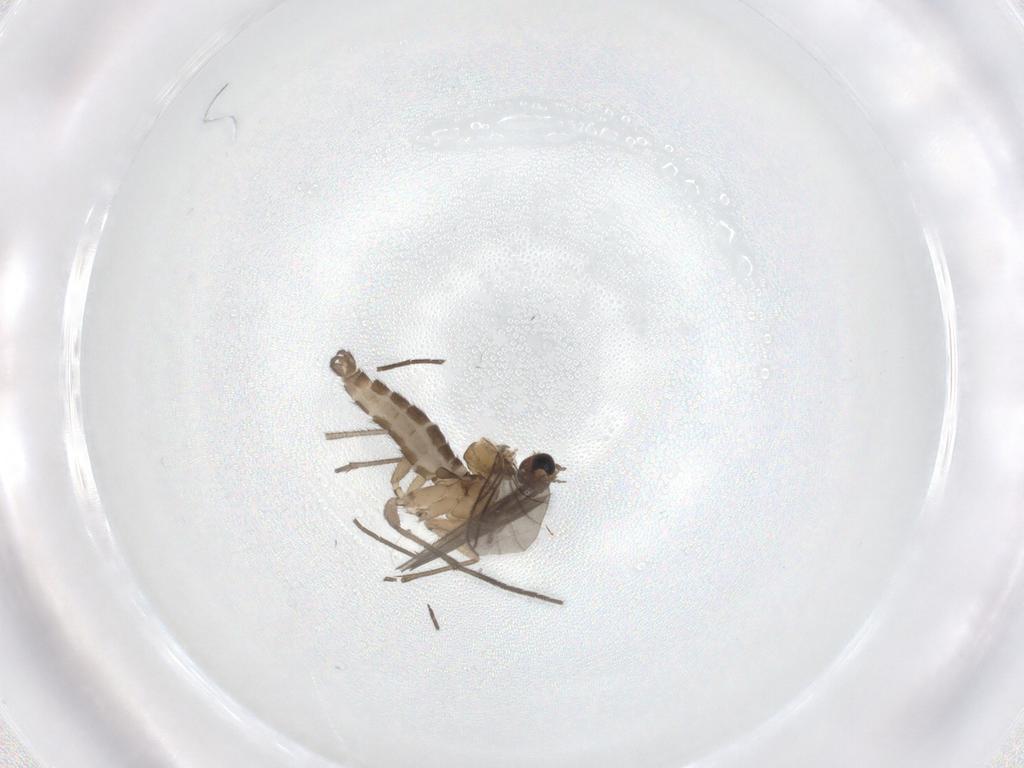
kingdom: Animalia
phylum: Arthropoda
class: Insecta
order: Diptera
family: Sciaridae
